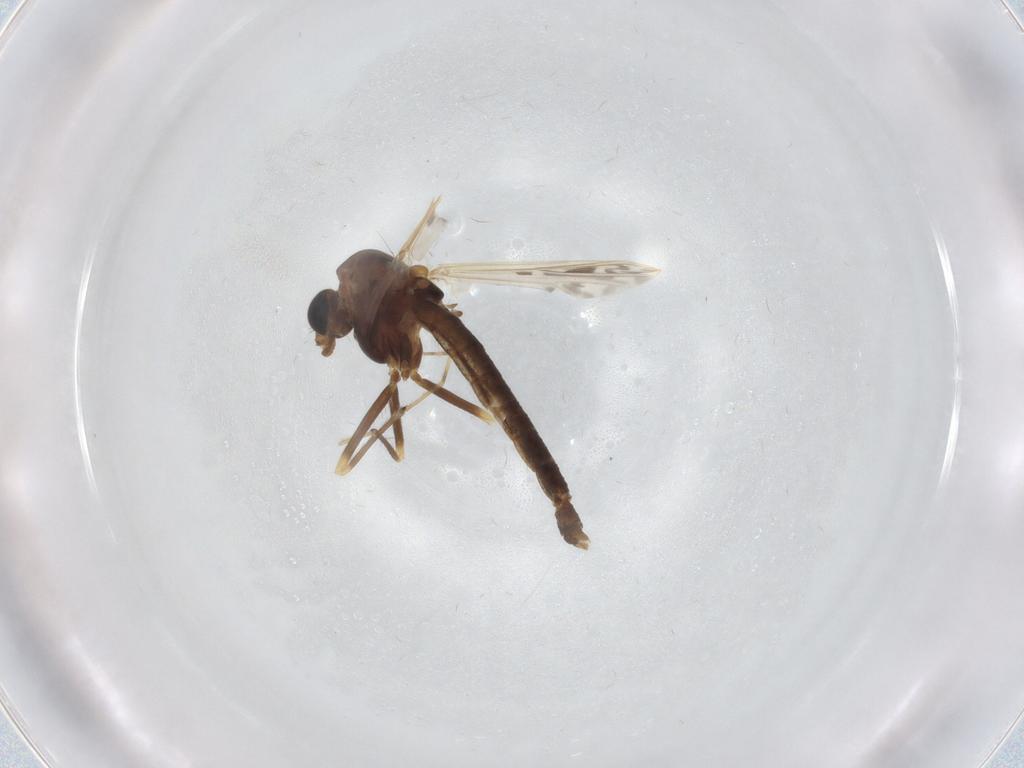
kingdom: Animalia
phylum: Arthropoda
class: Insecta
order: Diptera
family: Chironomidae
